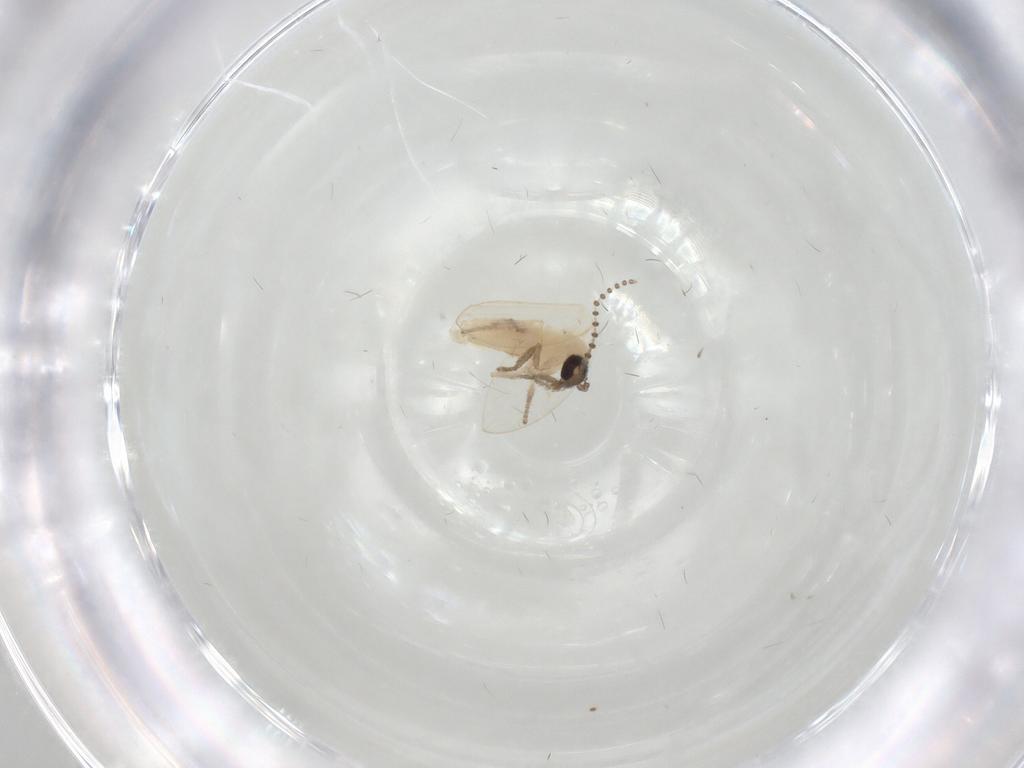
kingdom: Animalia
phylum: Arthropoda
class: Insecta
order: Diptera
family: Psychodidae
